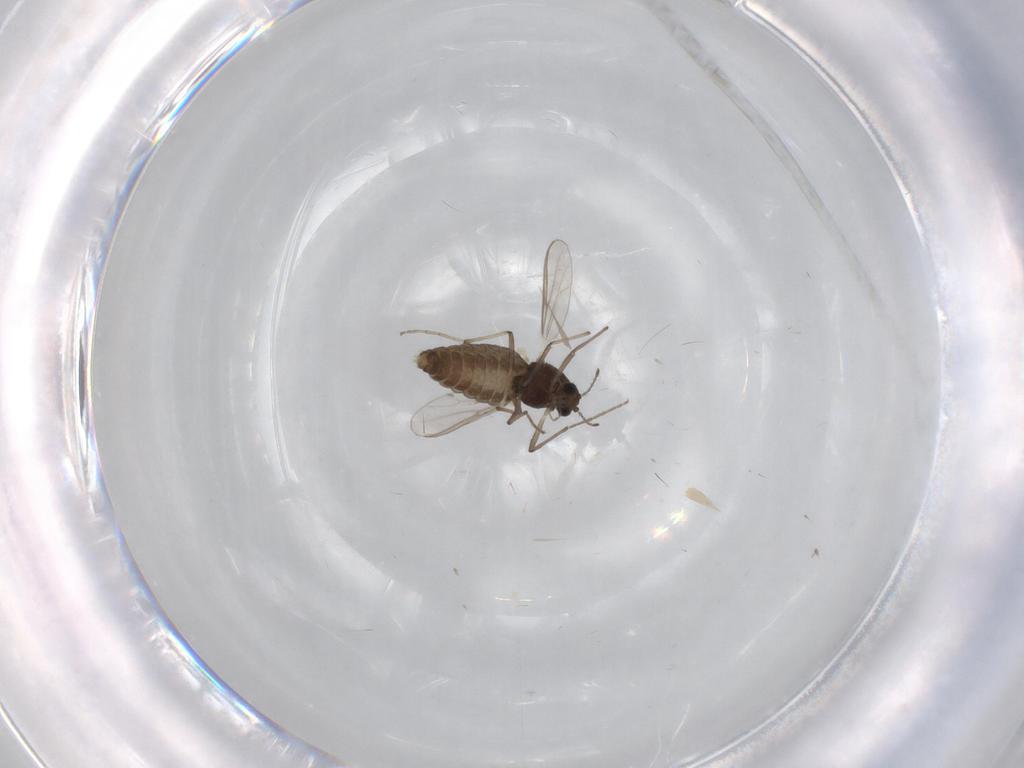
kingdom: Animalia
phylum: Arthropoda
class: Insecta
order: Diptera
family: Chironomidae
